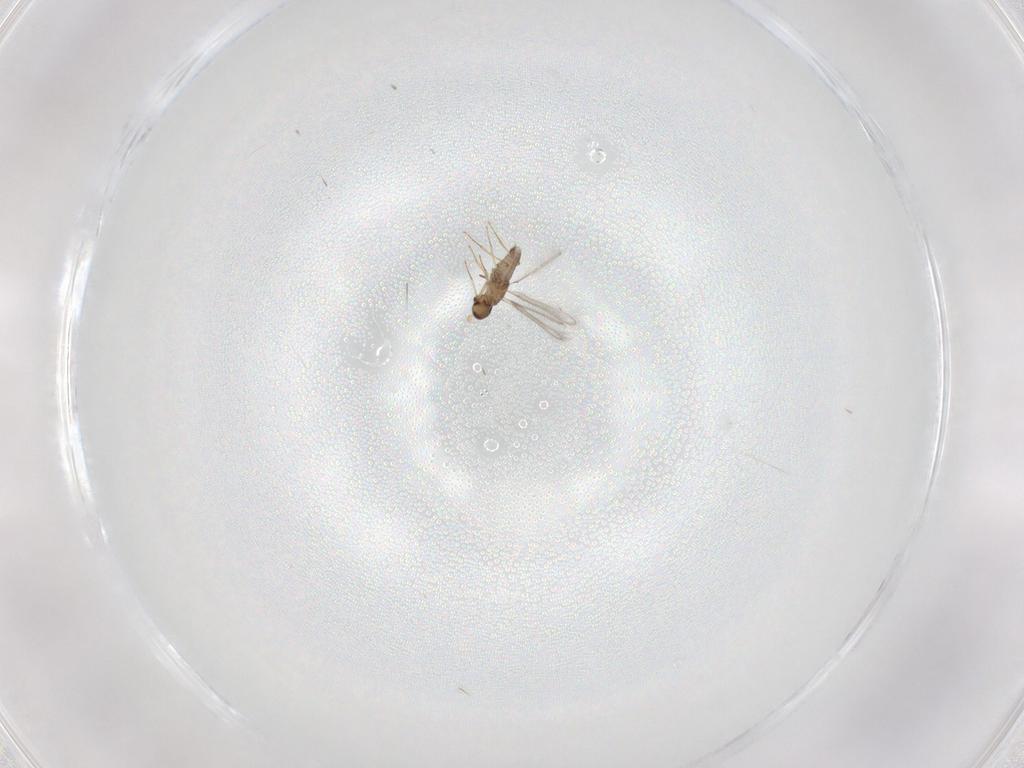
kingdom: Animalia
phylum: Arthropoda
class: Insecta
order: Hymenoptera
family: Mymaridae
